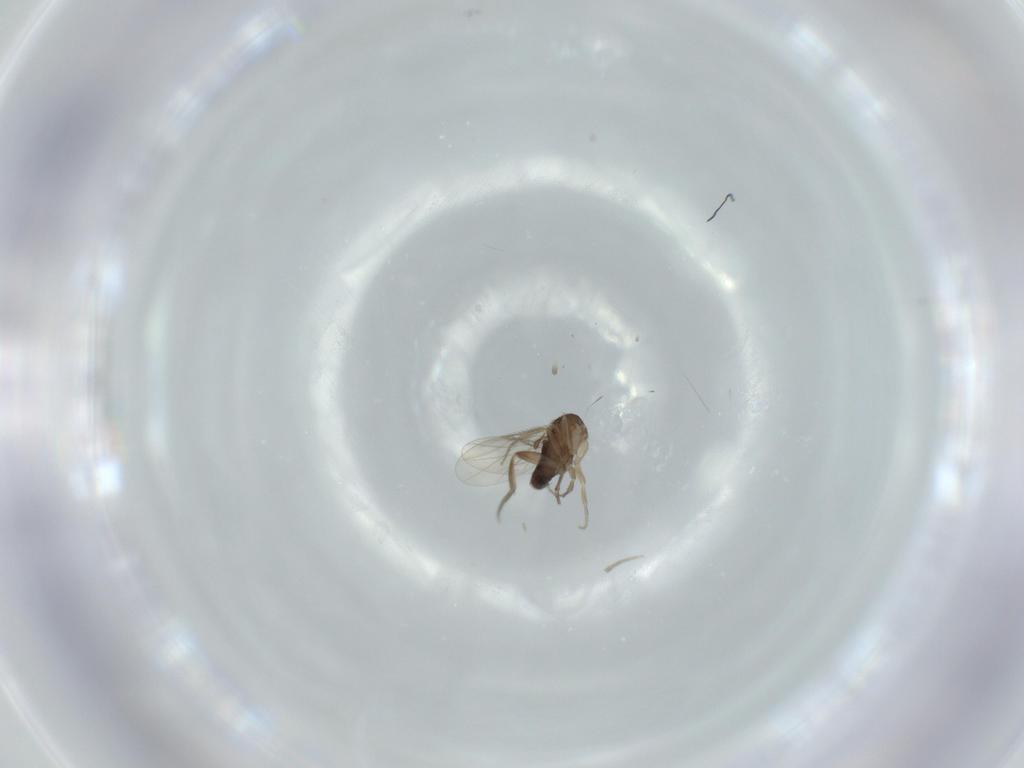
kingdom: Animalia
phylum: Arthropoda
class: Insecta
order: Diptera
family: Phoridae
